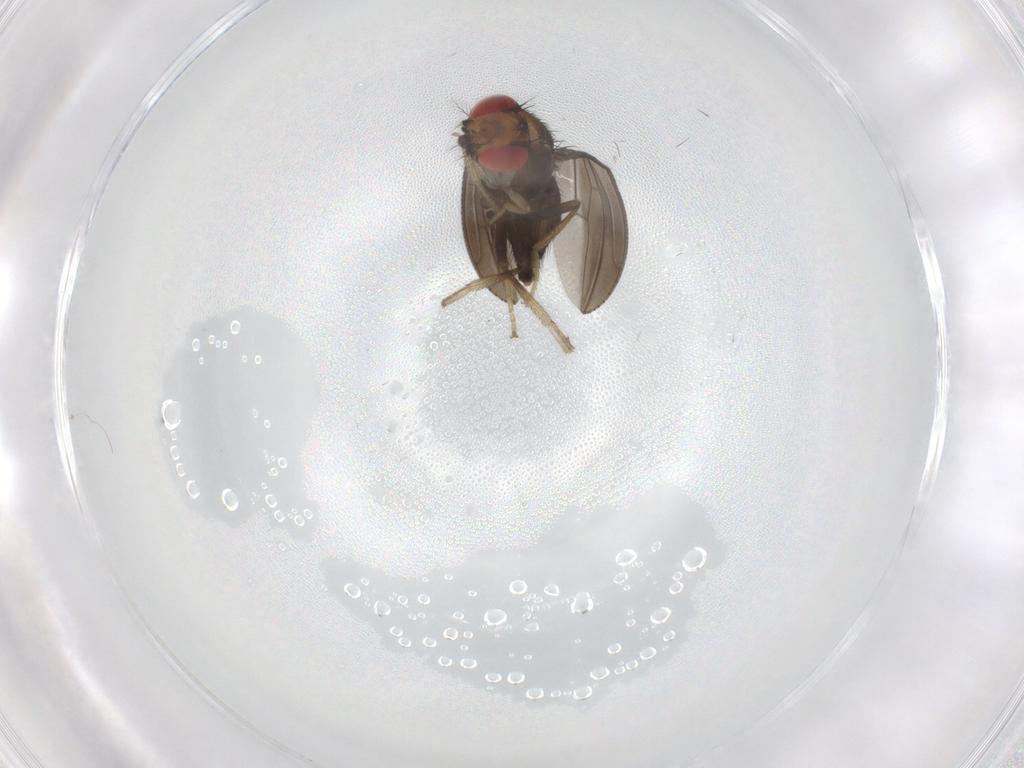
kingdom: Animalia
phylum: Arthropoda
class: Insecta
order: Diptera
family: Drosophilidae
